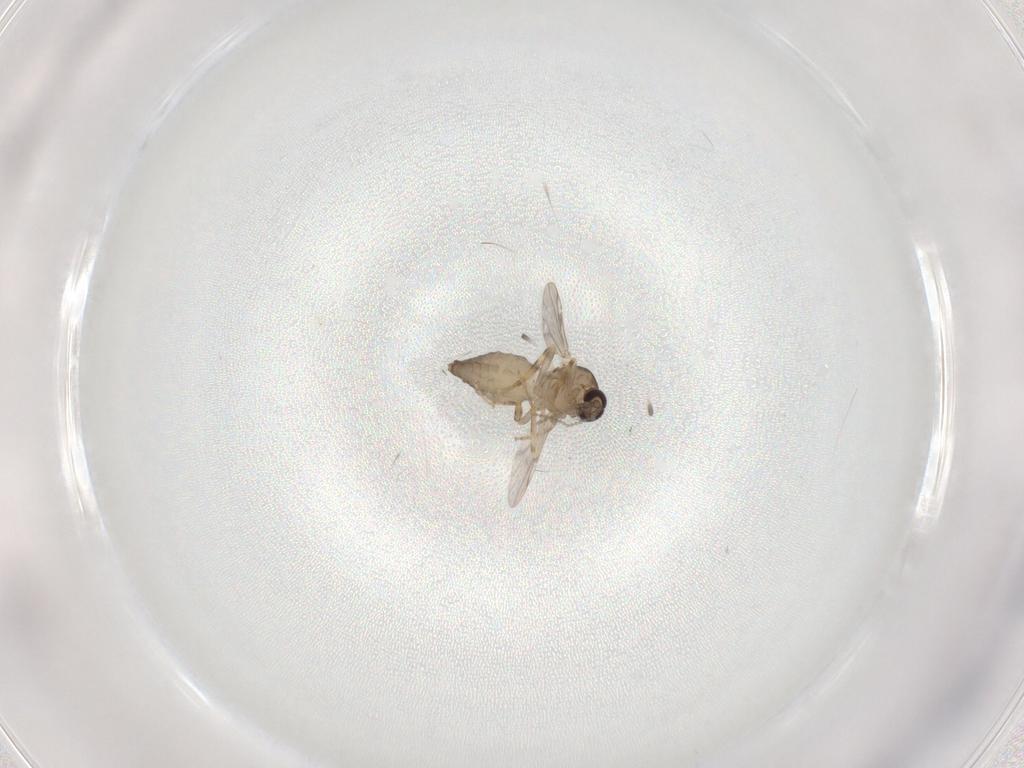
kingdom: Animalia
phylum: Arthropoda
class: Insecta
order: Diptera
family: Ceratopogonidae
